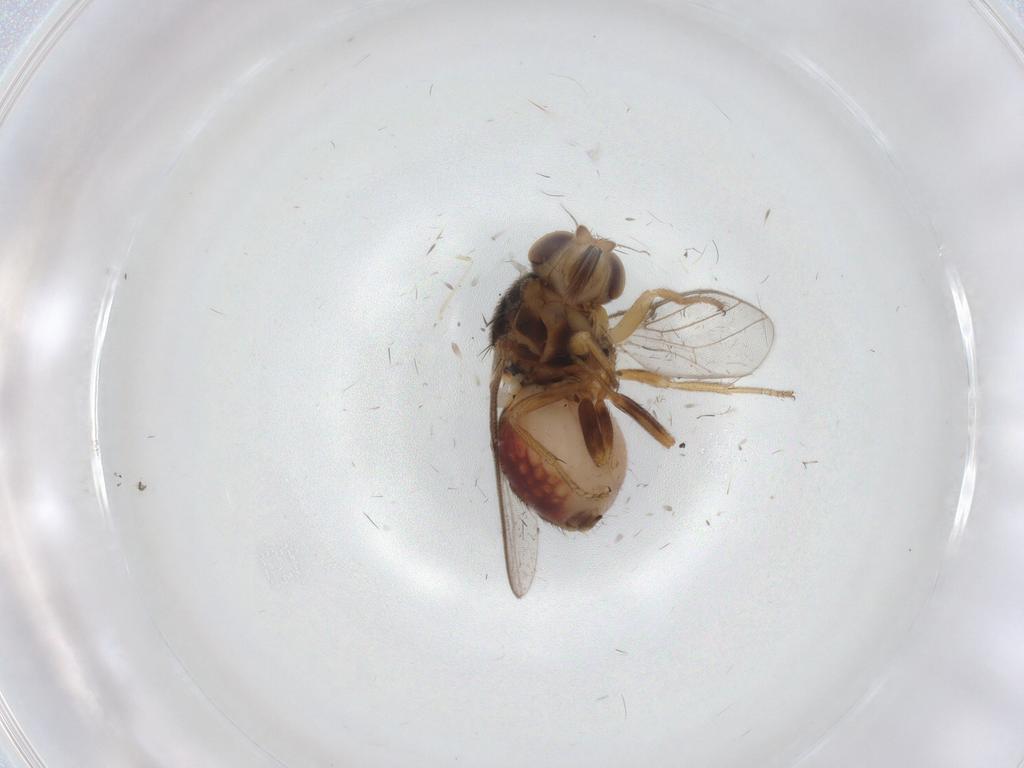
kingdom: Animalia
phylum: Arthropoda
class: Insecta
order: Diptera
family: Chloropidae
